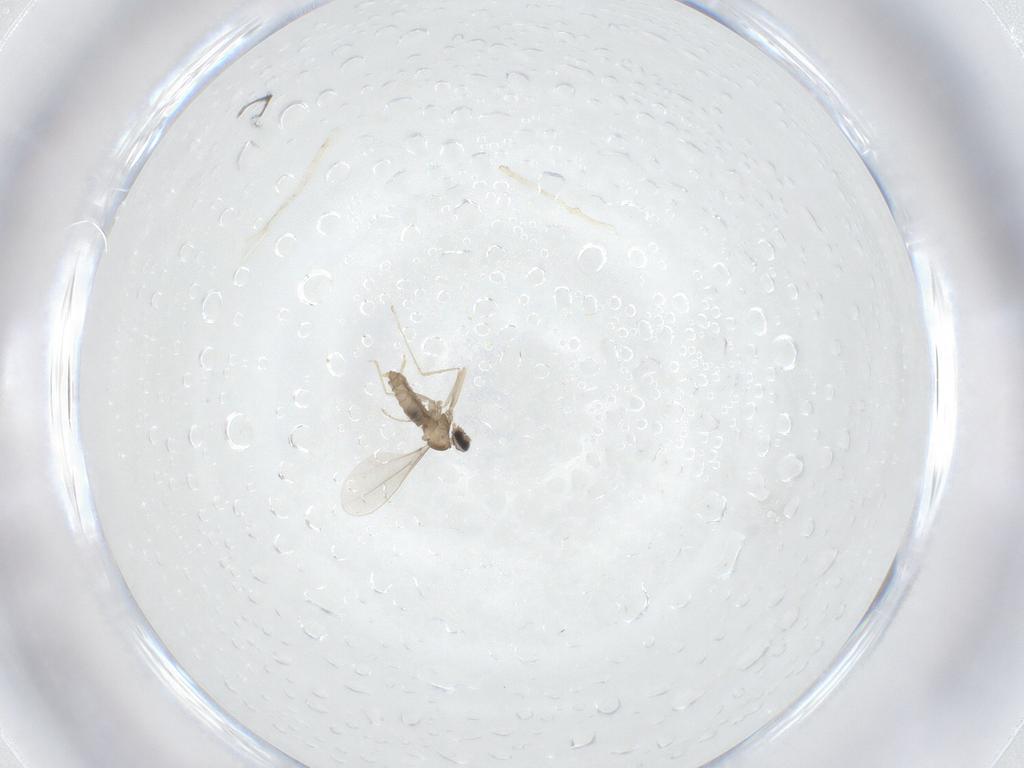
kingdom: Animalia
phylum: Arthropoda
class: Insecta
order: Diptera
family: Cecidomyiidae
